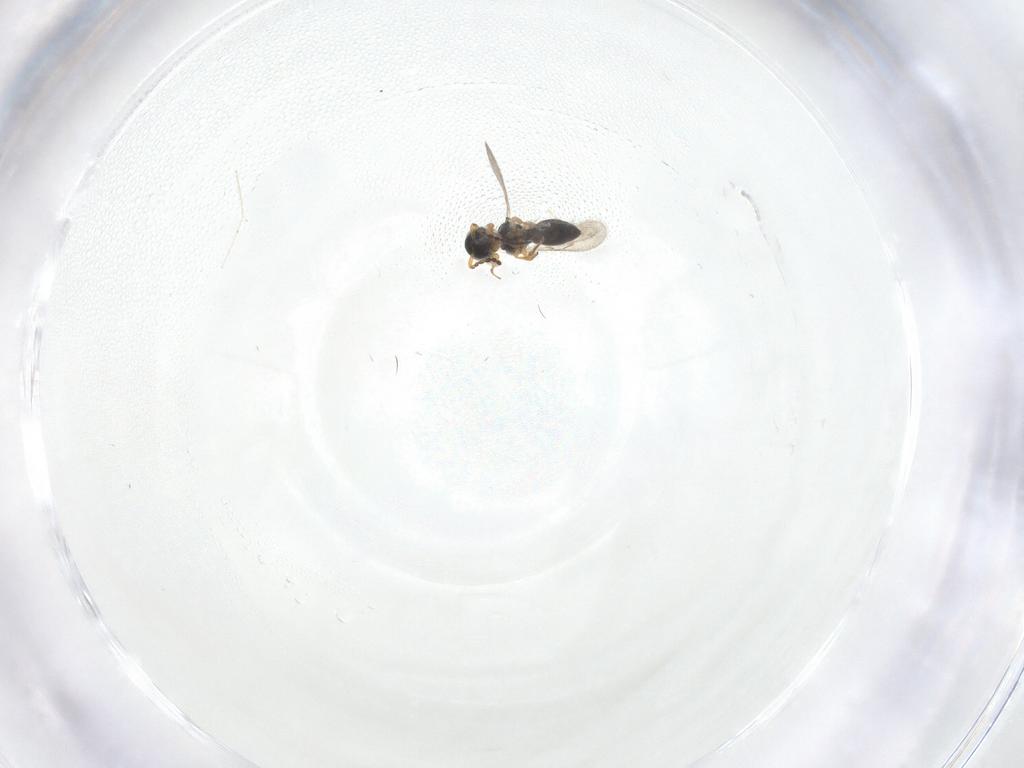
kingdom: Animalia
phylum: Arthropoda
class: Insecta
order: Hymenoptera
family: Scelionidae
